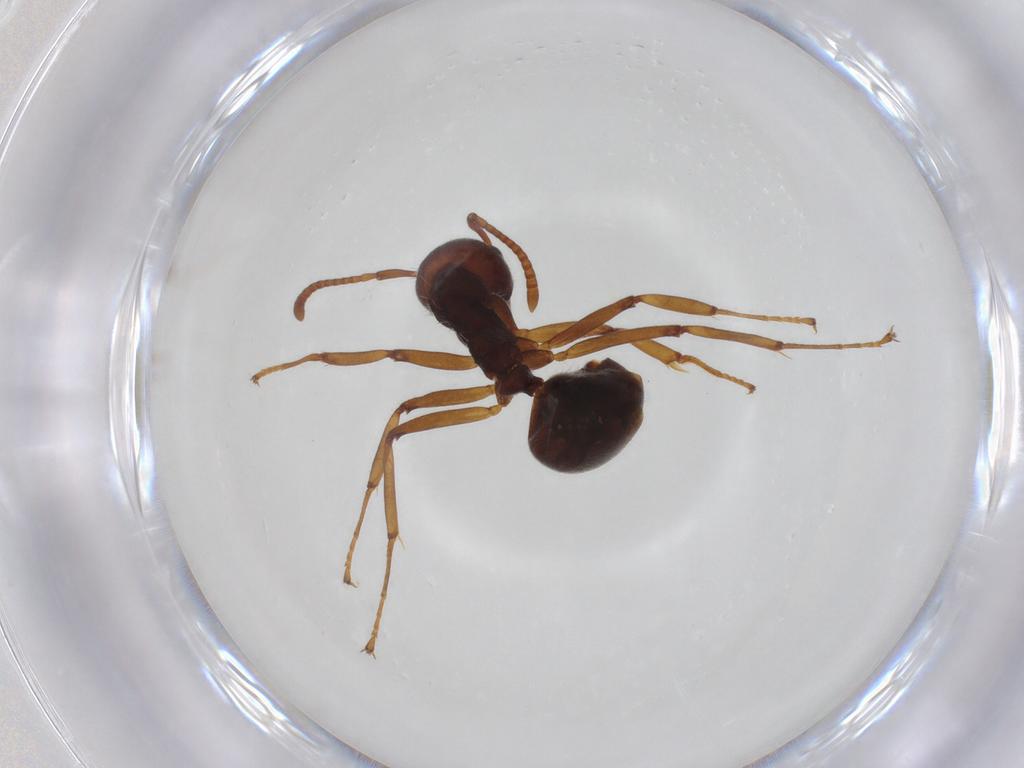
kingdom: Animalia
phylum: Arthropoda
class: Insecta
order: Hymenoptera
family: Formicidae
